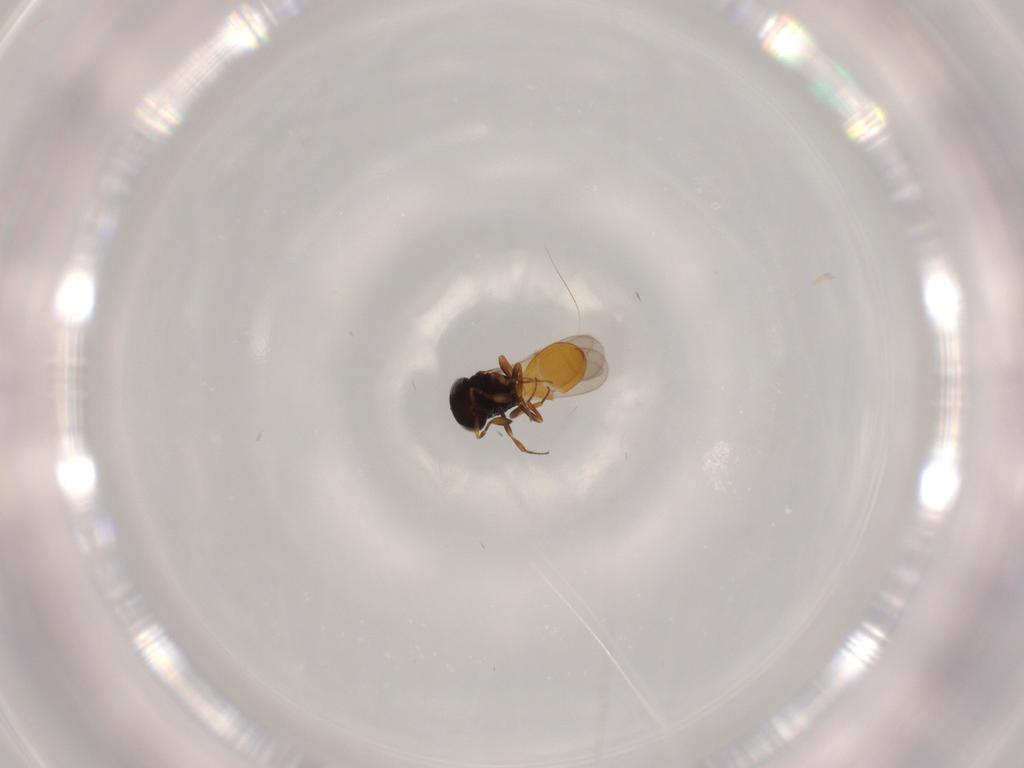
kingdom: Animalia
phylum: Arthropoda
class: Insecta
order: Hymenoptera
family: Scelionidae
